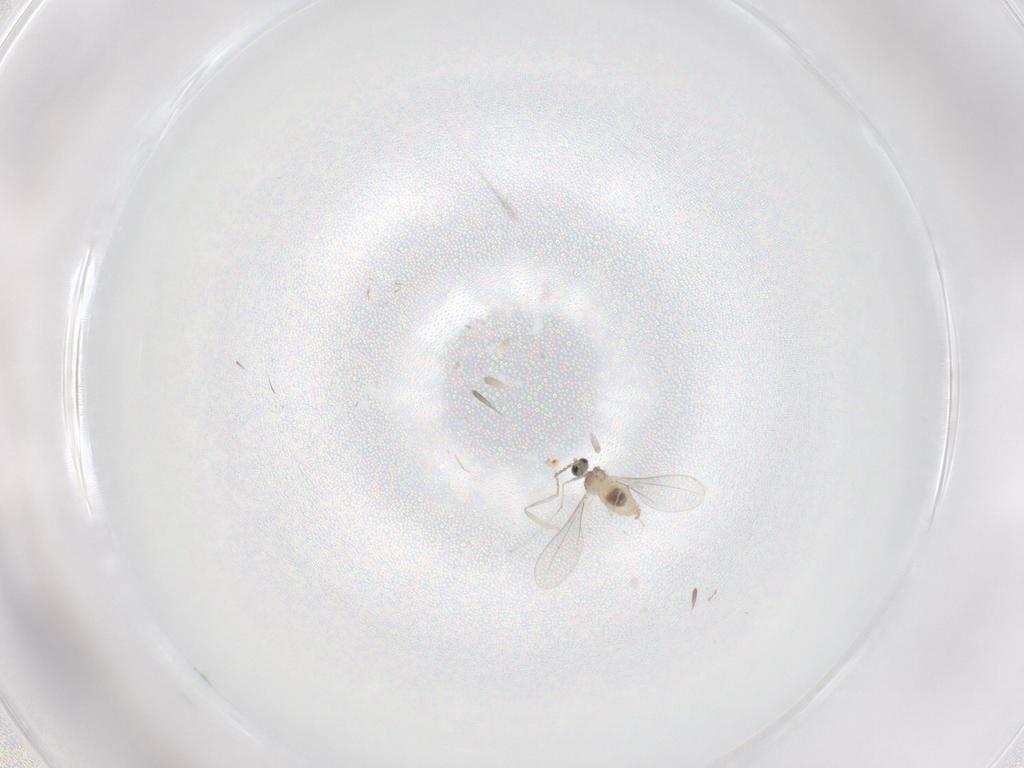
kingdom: Animalia
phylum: Arthropoda
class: Insecta
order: Diptera
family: Cecidomyiidae
